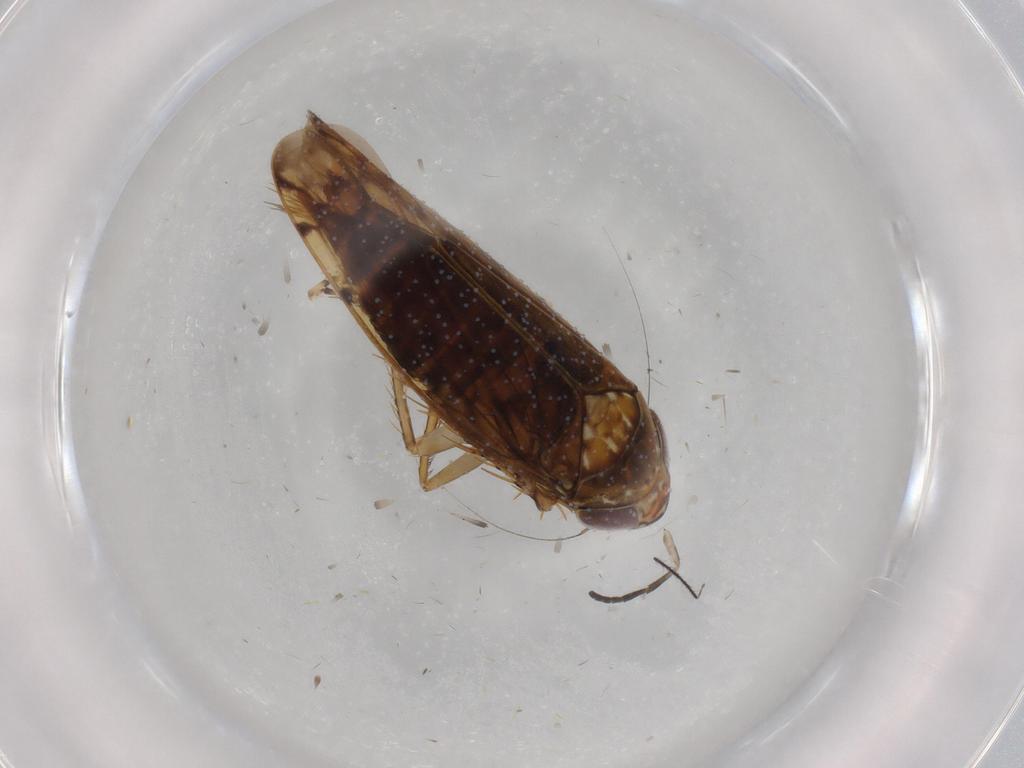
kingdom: Animalia
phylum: Arthropoda
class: Insecta
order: Hemiptera
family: Cicadellidae
